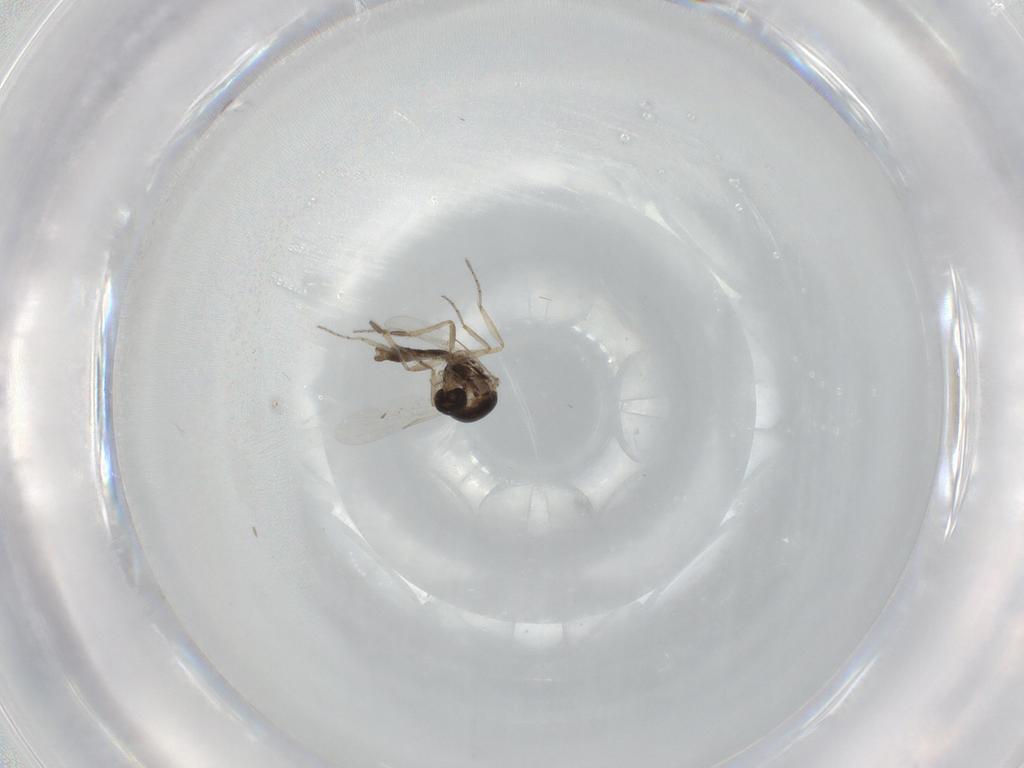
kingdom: Animalia
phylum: Arthropoda
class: Insecta
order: Diptera
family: Ceratopogonidae
